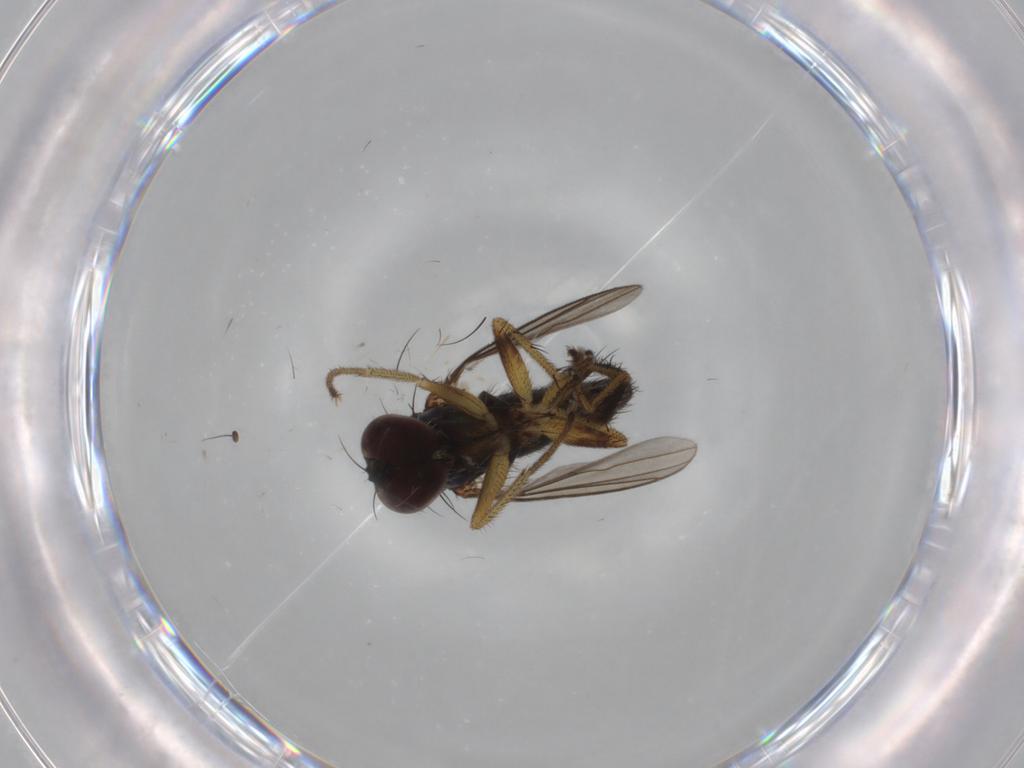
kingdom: Animalia
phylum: Arthropoda
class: Insecta
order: Diptera
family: Dolichopodidae
